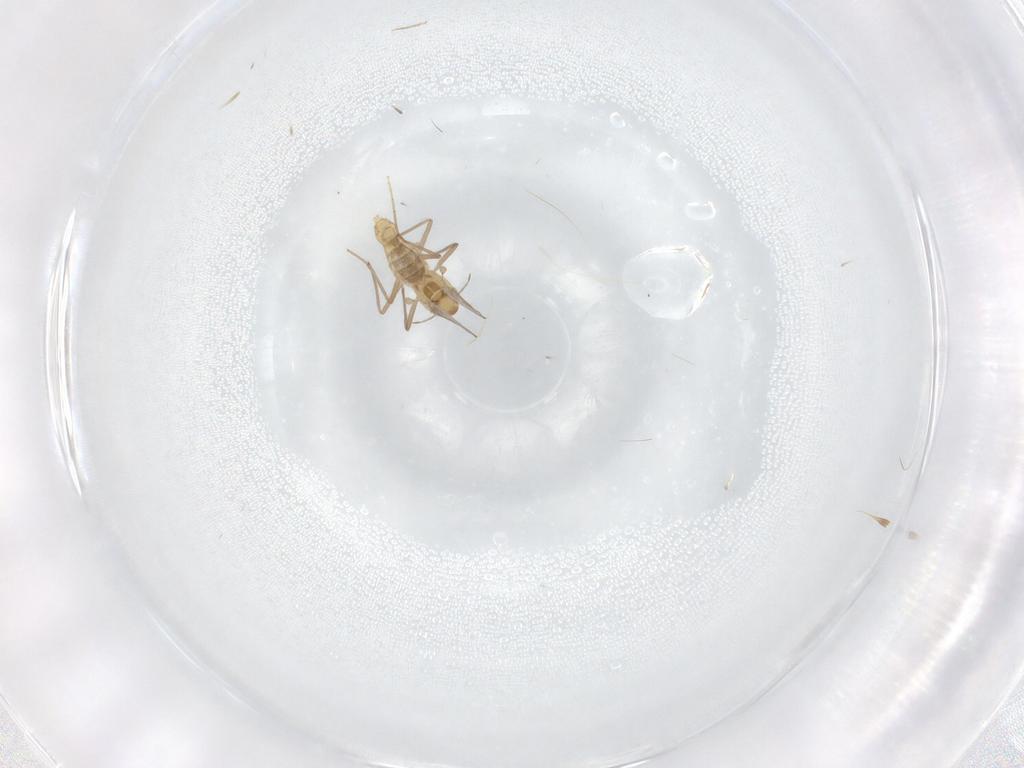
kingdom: Animalia
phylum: Arthropoda
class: Insecta
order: Diptera
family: Chironomidae
